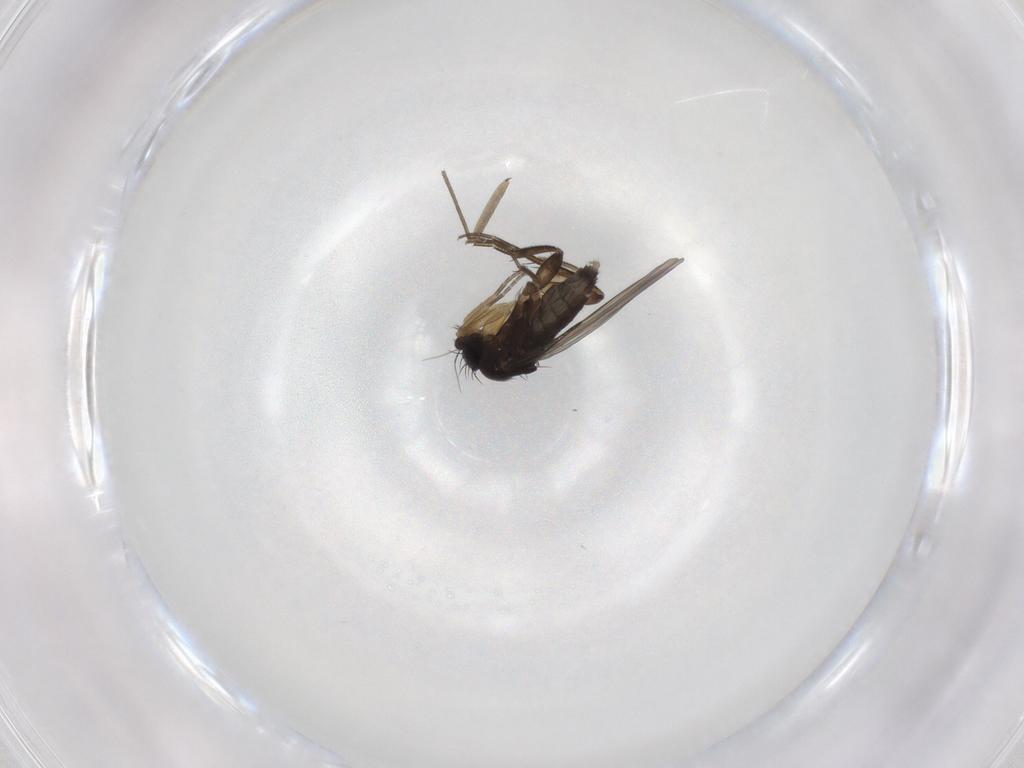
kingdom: Animalia
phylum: Arthropoda
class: Insecta
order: Diptera
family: Phoridae
